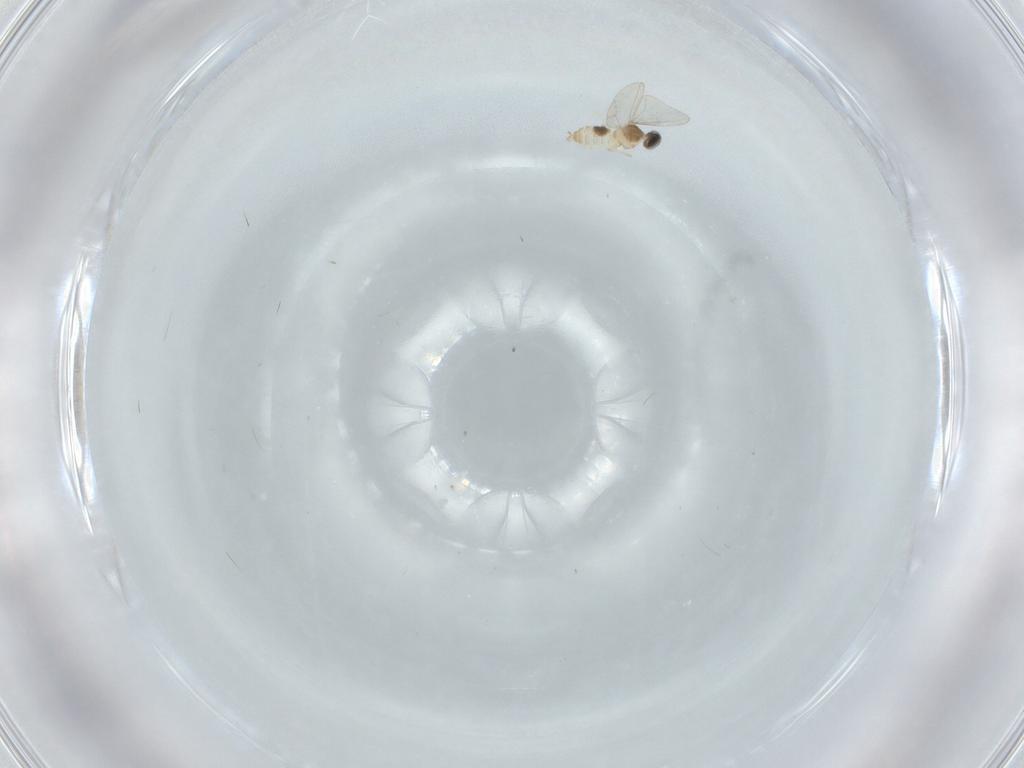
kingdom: Animalia
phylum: Arthropoda
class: Insecta
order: Diptera
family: Cecidomyiidae
